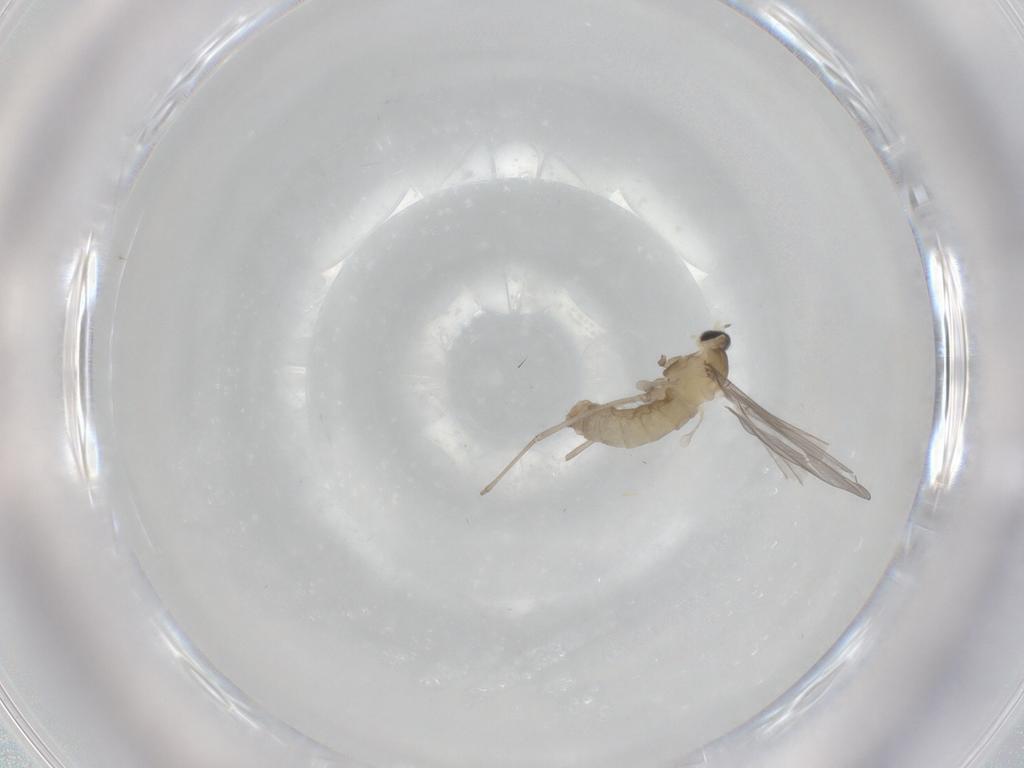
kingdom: Animalia
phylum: Arthropoda
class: Insecta
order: Diptera
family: Cecidomyiidae
